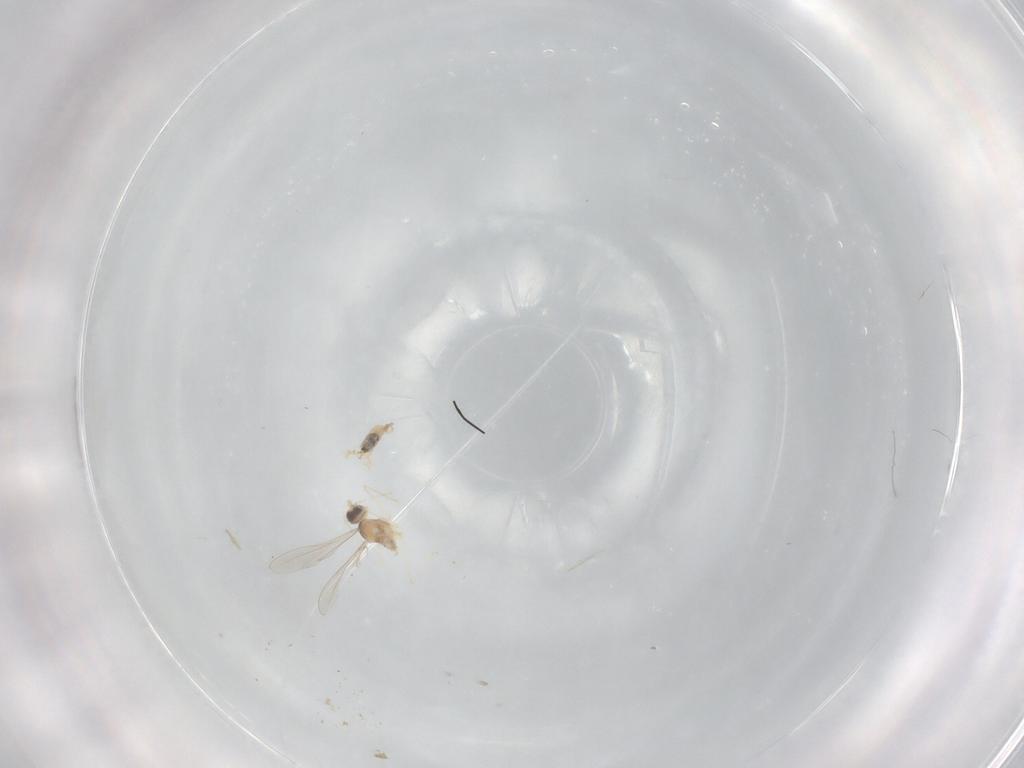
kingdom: Animalia
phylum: Arthropoda
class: Insecta
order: Diptera
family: Cecidomyiidae
